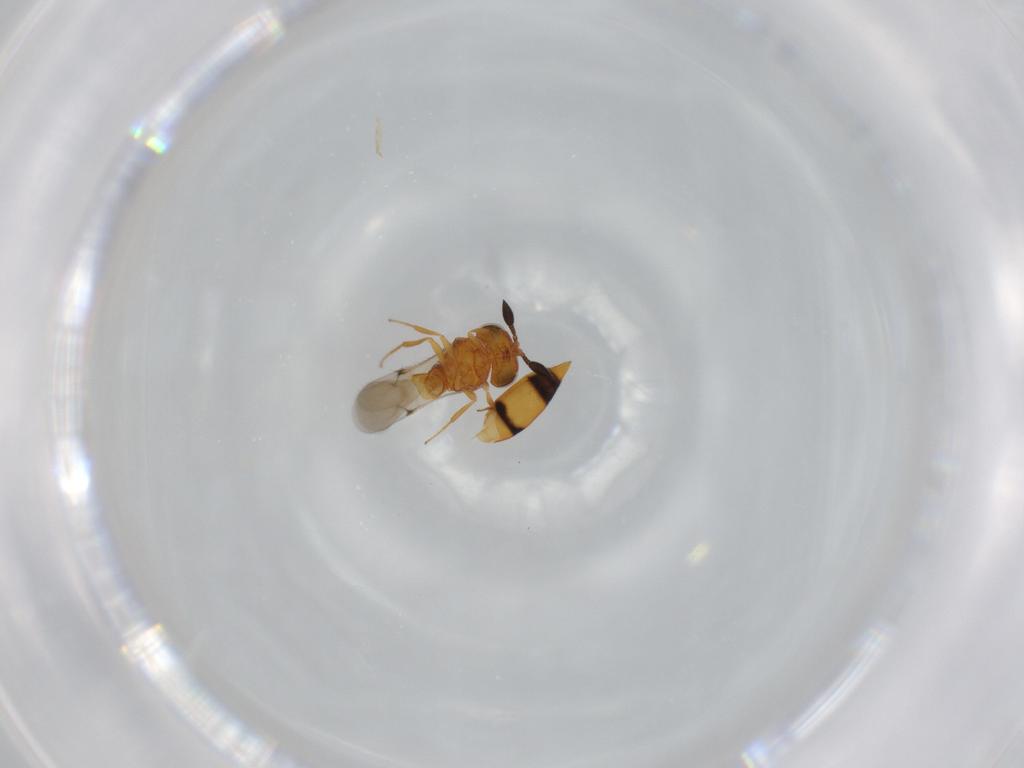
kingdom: Animalia
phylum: Arthropoda
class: Insecta
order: Hymenoptera
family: Scelionidae
